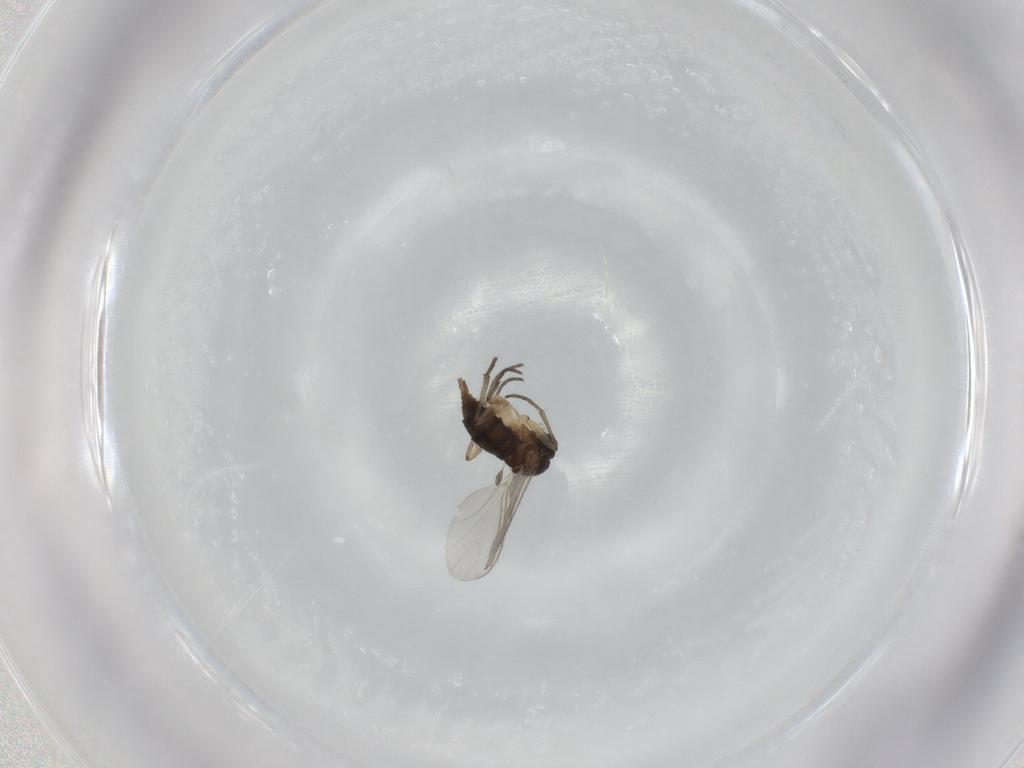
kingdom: Animalia
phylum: Arthropoda
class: Insecta
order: Diptera
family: Sciaridae
